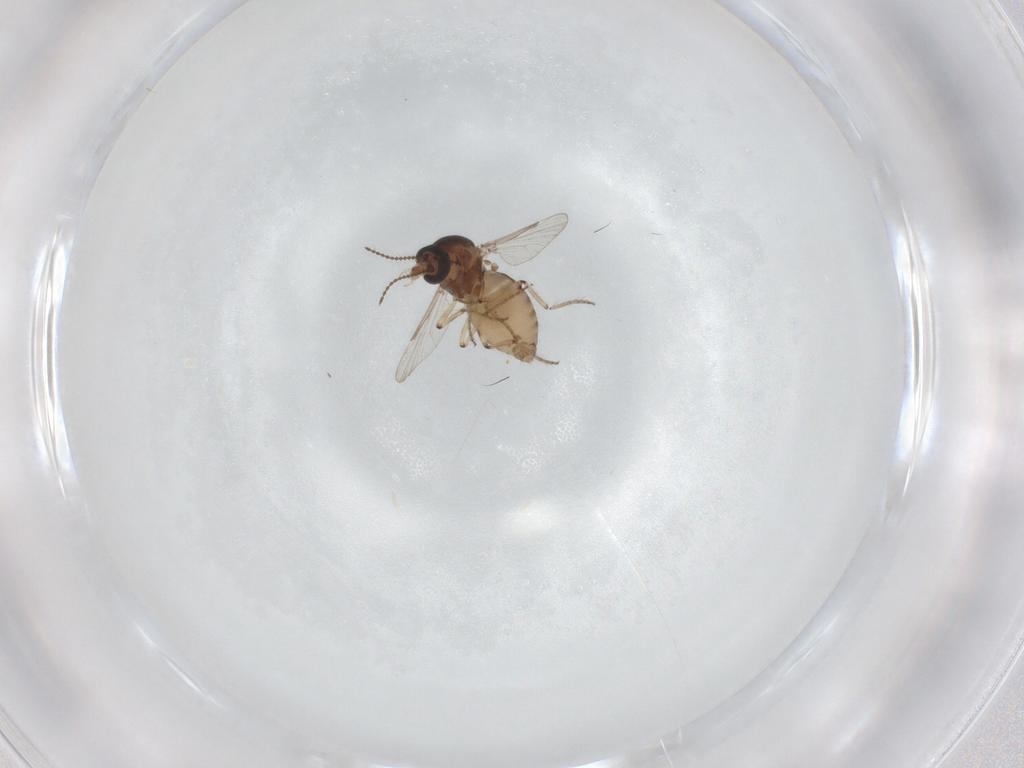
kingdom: Animalia
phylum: Arthropoda
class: Insecta
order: Diptera
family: Ceratopogonidae
